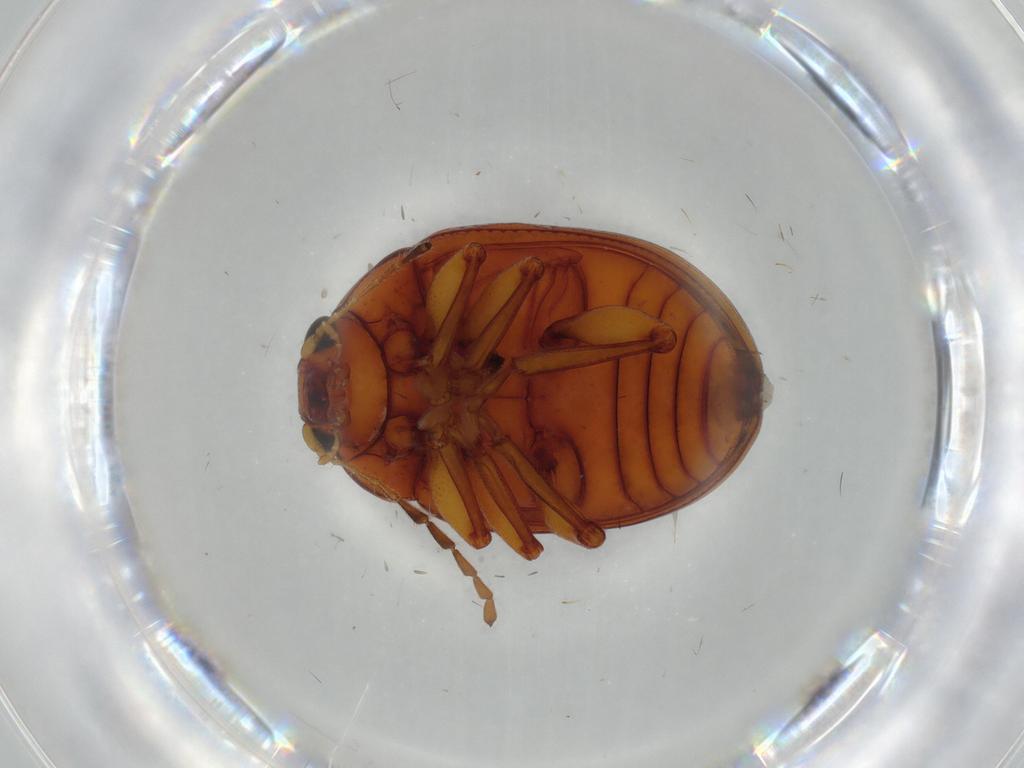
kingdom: Animalia
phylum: Arthropoda
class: Insecta
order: Coleoptera
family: Chrysomelidae
